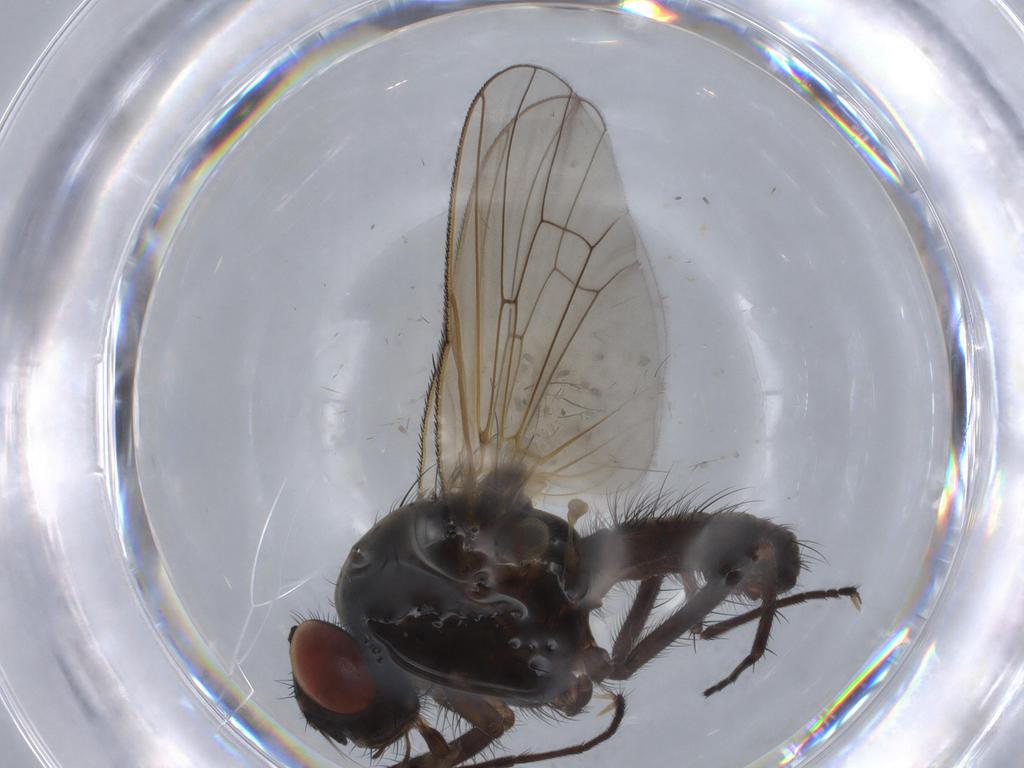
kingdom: Animalia
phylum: Arthropoda
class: Insecta
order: Diptera
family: Anthomyiidae
